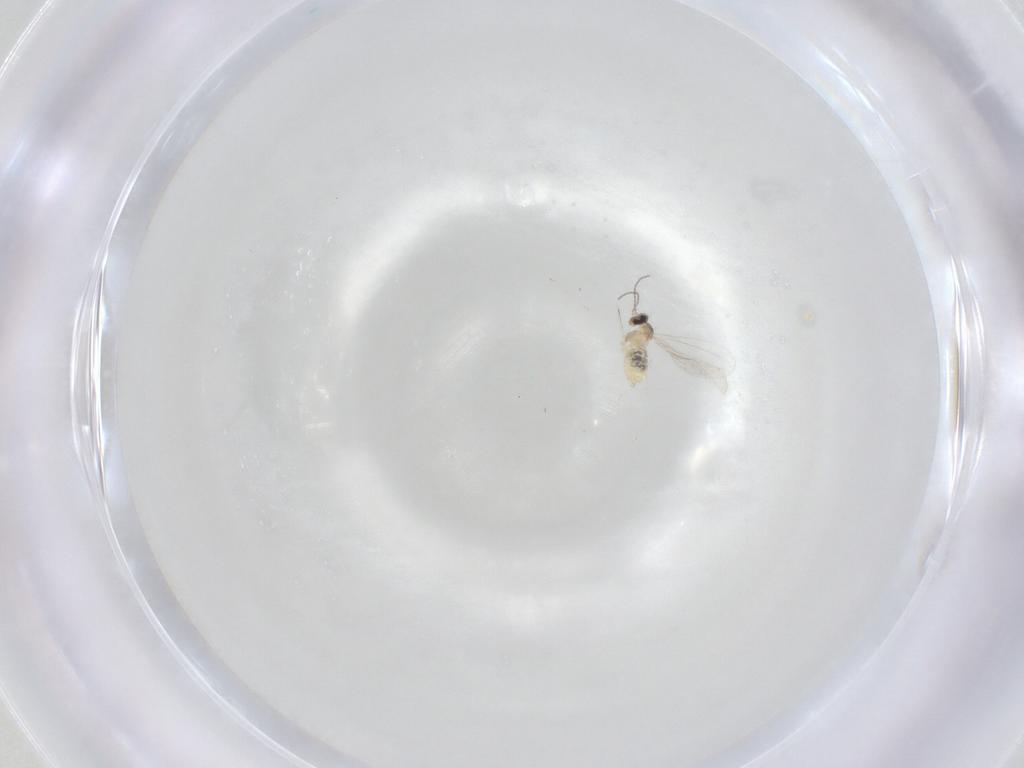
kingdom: Animalia
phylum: Arthropoda
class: Insecta
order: Diptera
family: Cecidomyiidae
